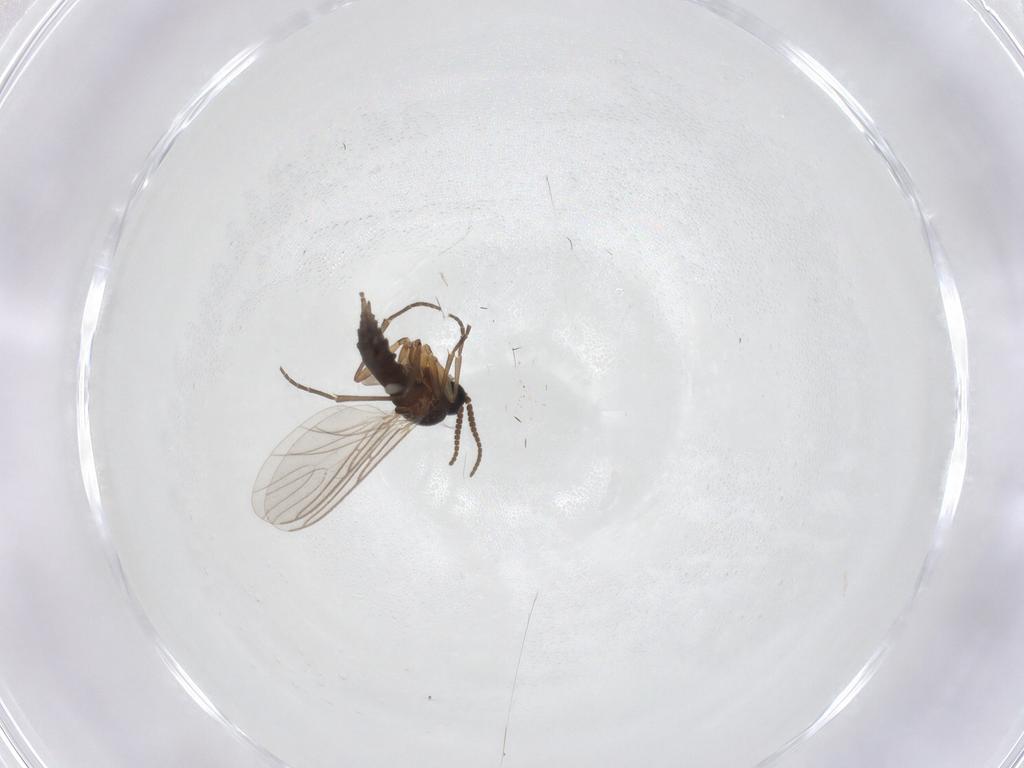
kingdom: Animalia
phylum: Arthropoda
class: Insecta
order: Diptera
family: Sciaridae
